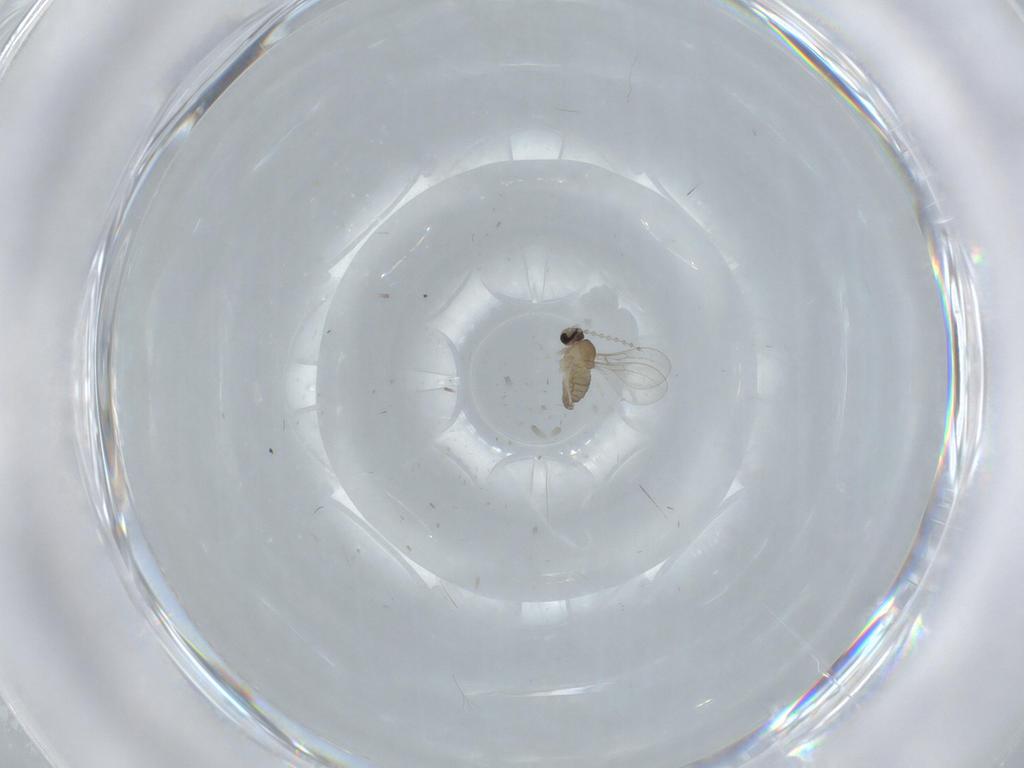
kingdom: Animalia
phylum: Arthropoda
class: Insecta
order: Diptera
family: Cecidomyiidae
